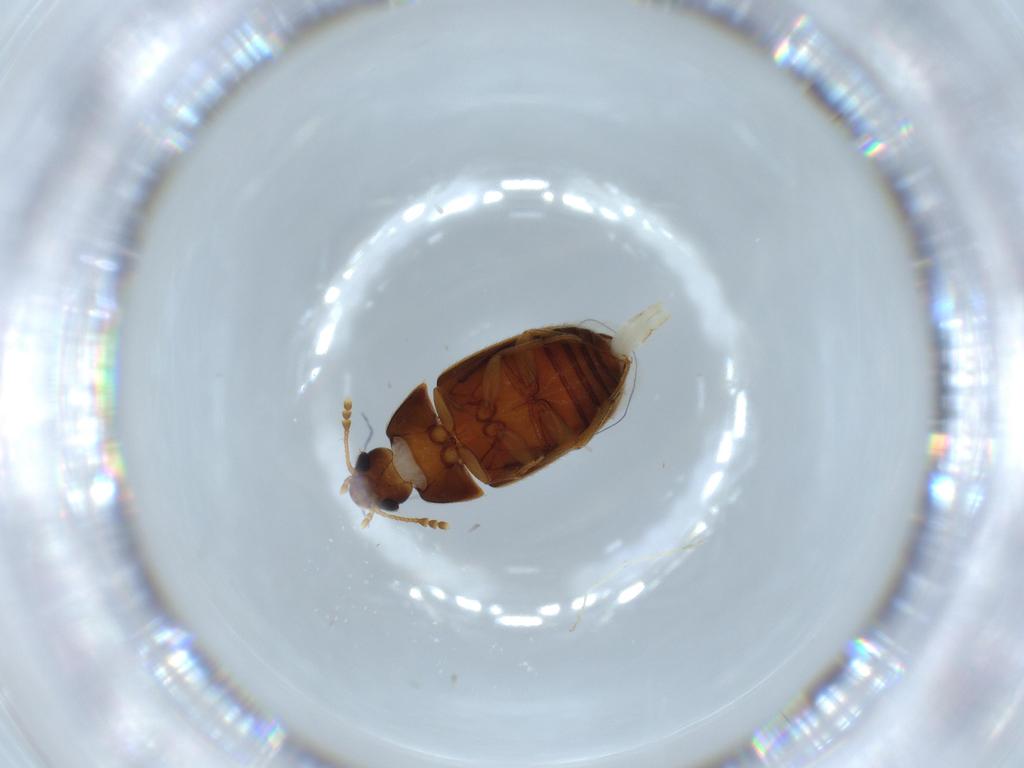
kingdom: Animalia
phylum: Arthropoda
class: Insecta
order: Coleoptera
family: Mycetophagidae
